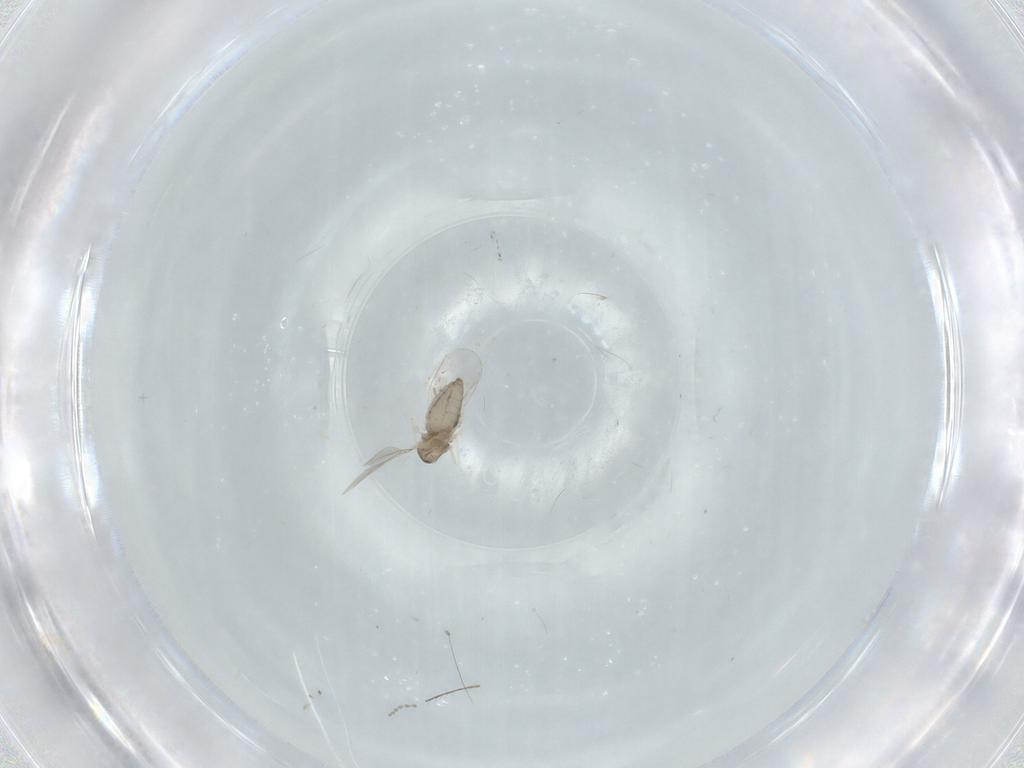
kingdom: Animalia
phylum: Arthropoda
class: Insecta
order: Diptera
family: Cecidomyiidae
